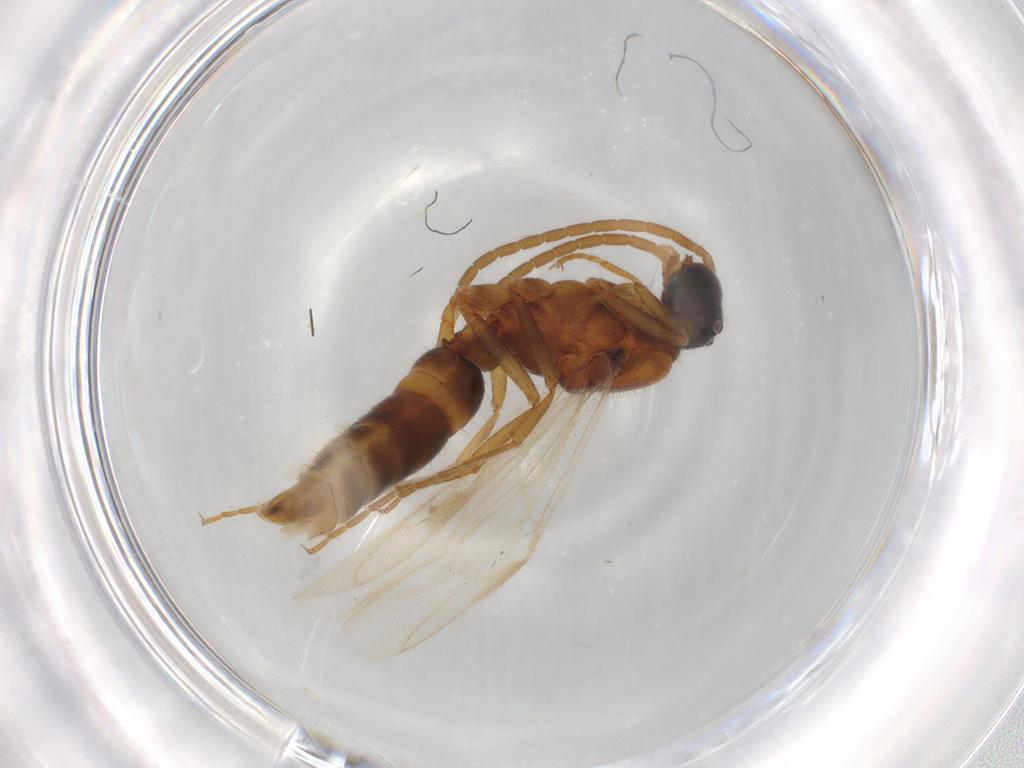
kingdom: Animalia
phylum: Arthropoda
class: Insecta
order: Hymenoptera
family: Formicidae
